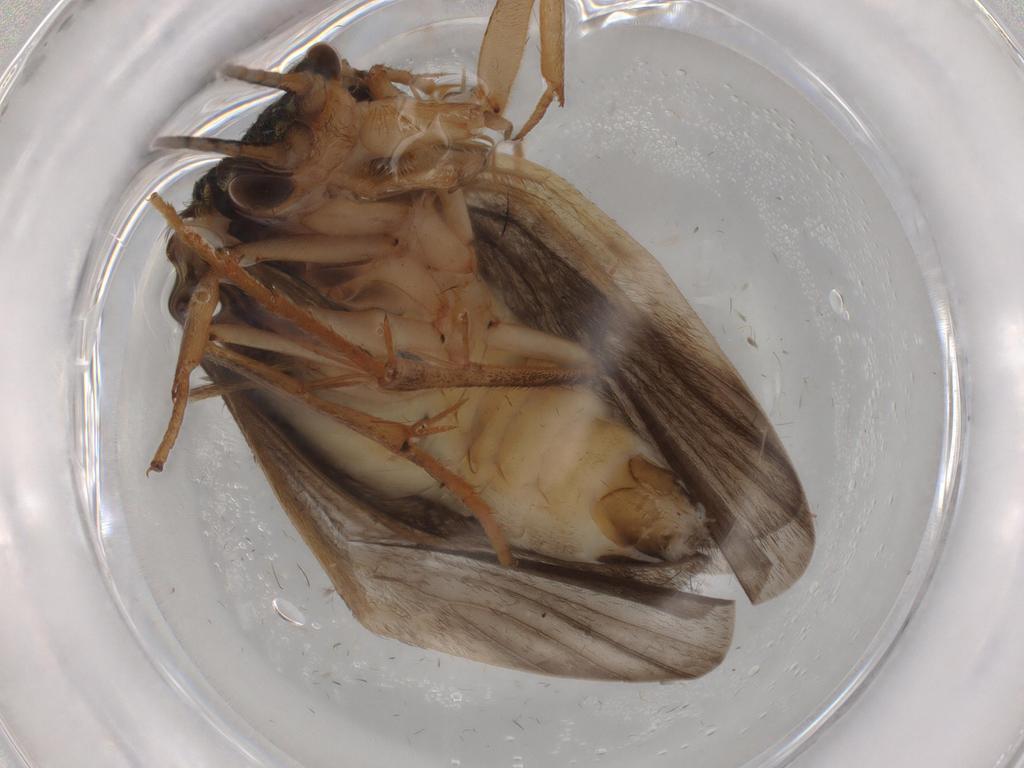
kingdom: Animalia
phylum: Arthropoda
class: Insecta
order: Trichoptera
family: Hydropsychidae
